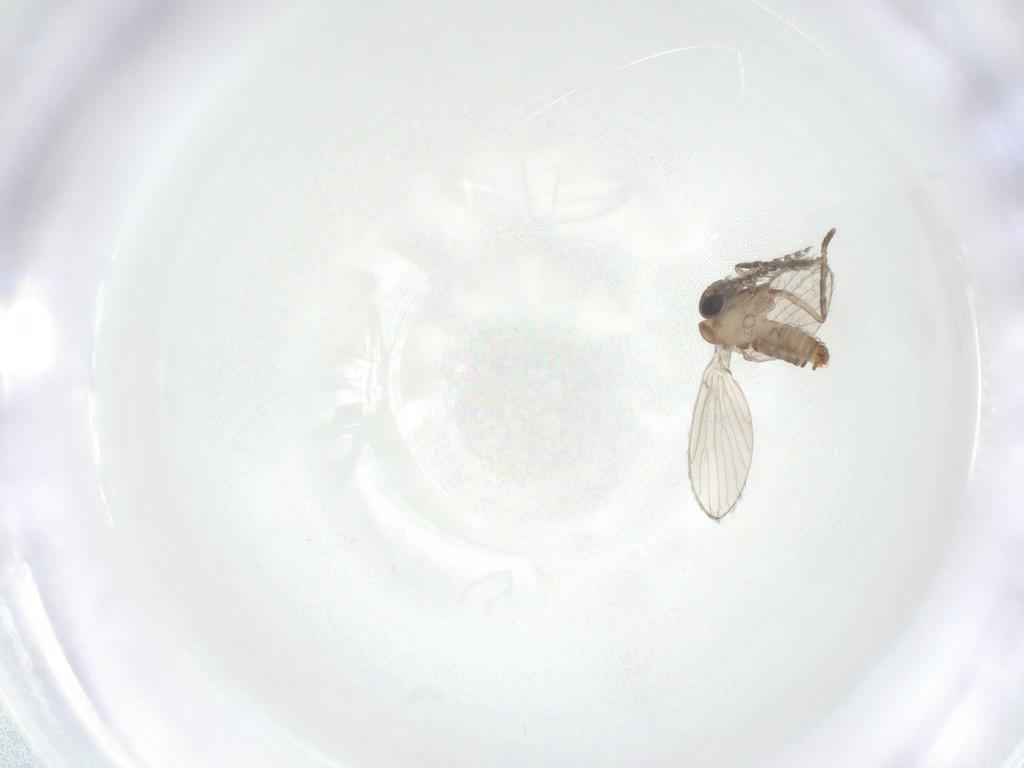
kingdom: Animalia
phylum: Arthropoda
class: Insecta
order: Diptera
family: Psychodidae
